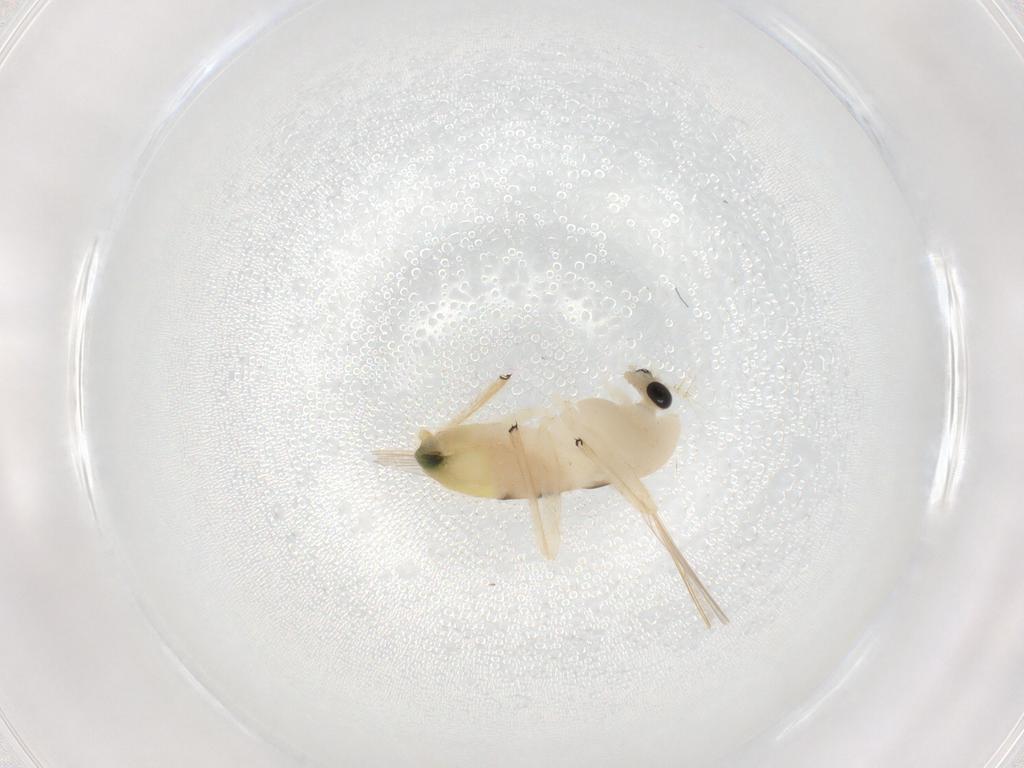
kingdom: Animalia
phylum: Arthropoda
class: Insecta
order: Diptera
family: Chironomidae
